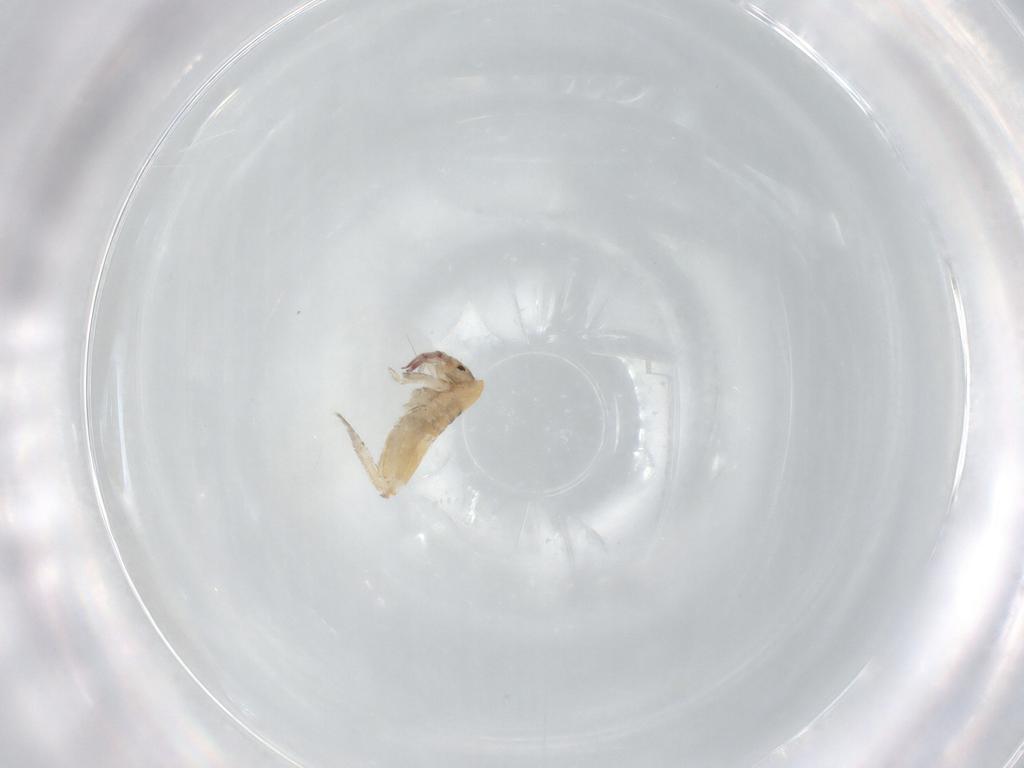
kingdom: Animalia
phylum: Arthropoda
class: Collembola
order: Entomobryomorpha
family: Entomobryidae
